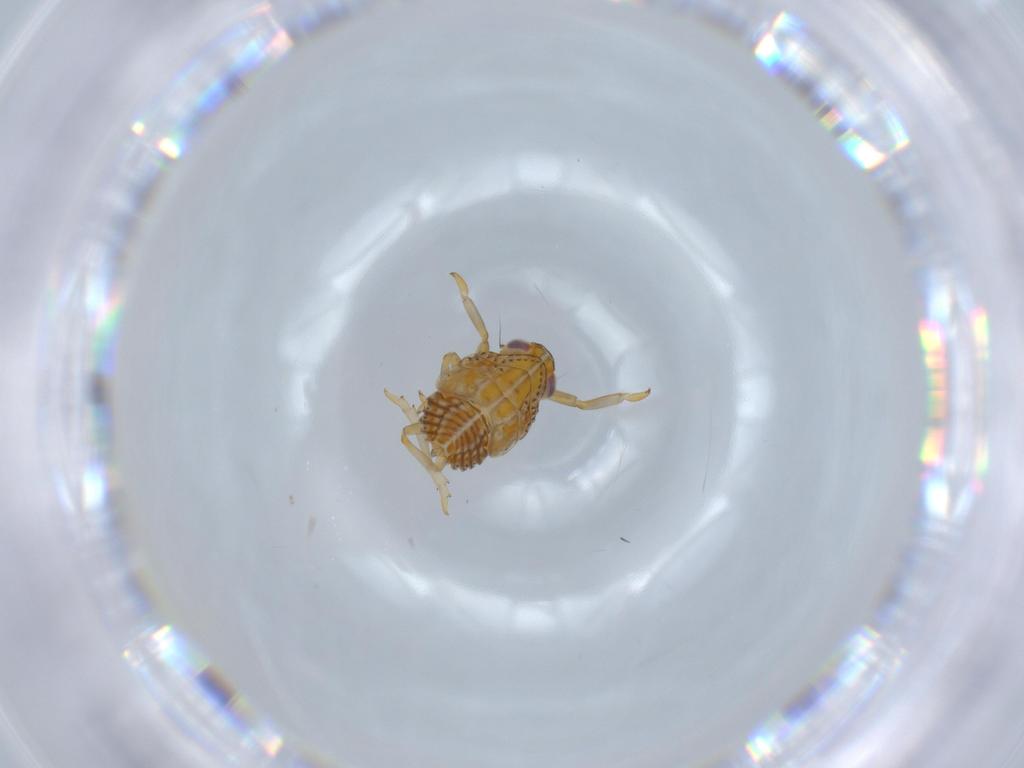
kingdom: Animalia
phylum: Arthropoda
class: Insecta
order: Hemiptera
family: Issidae
